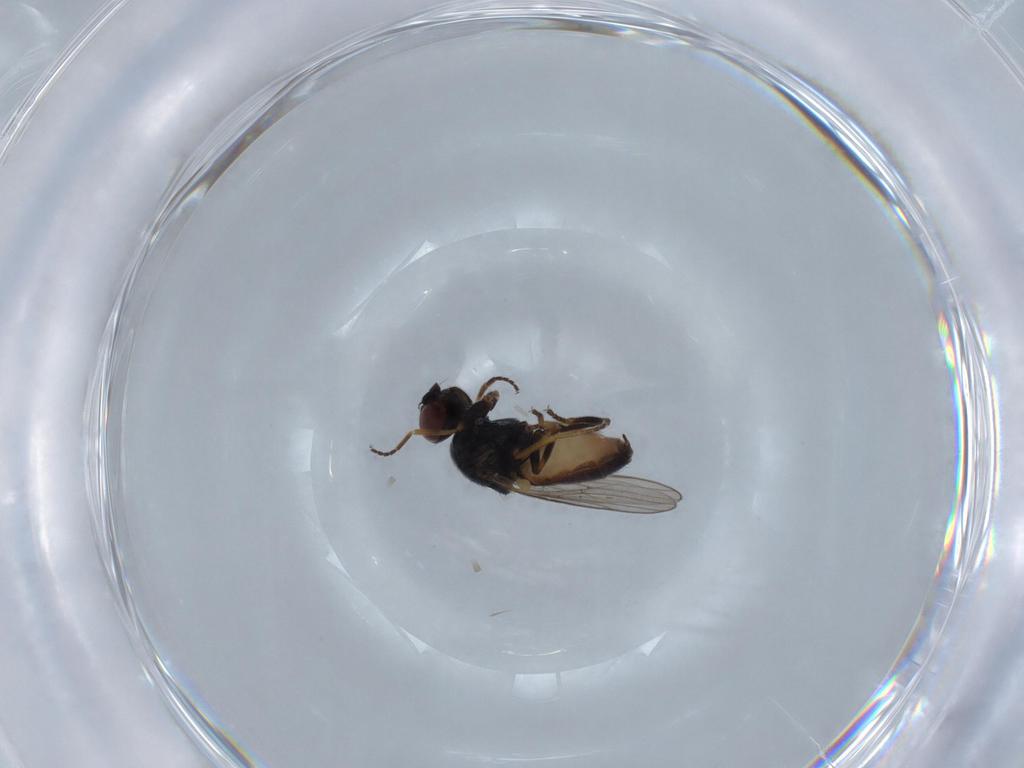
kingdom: Animalia
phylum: Arthropoda
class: Insecta
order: Diptera
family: Chloropidae
